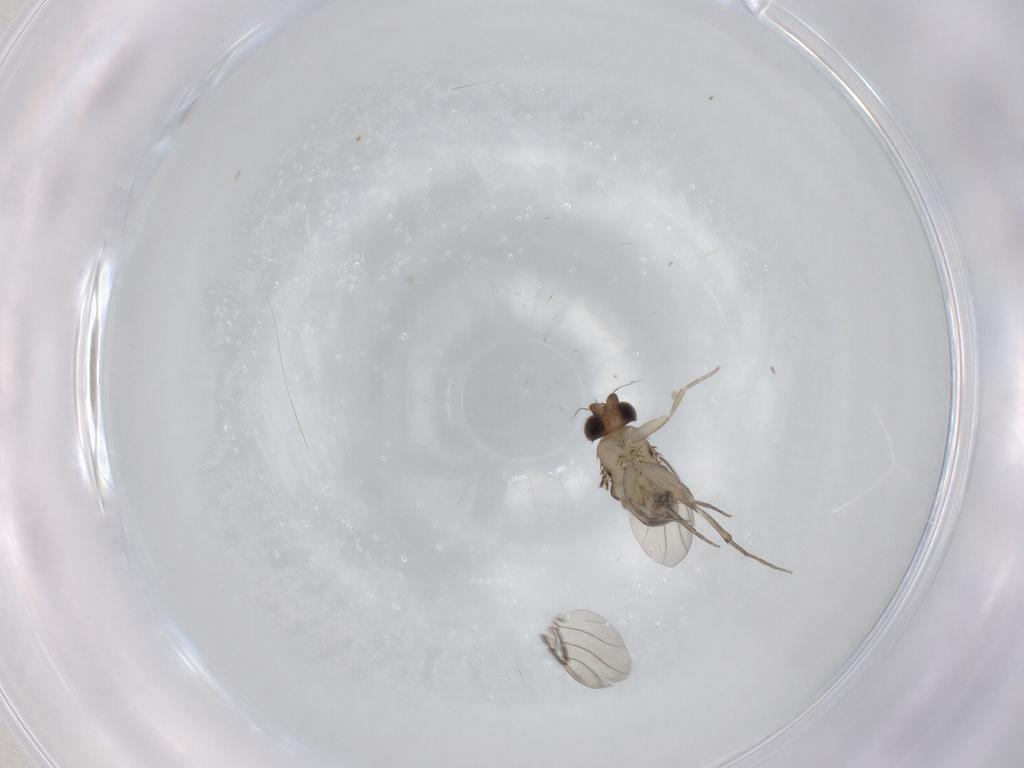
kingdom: Animalia
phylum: Arthropoda
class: Insecta
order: Diptera
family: Phoridae
